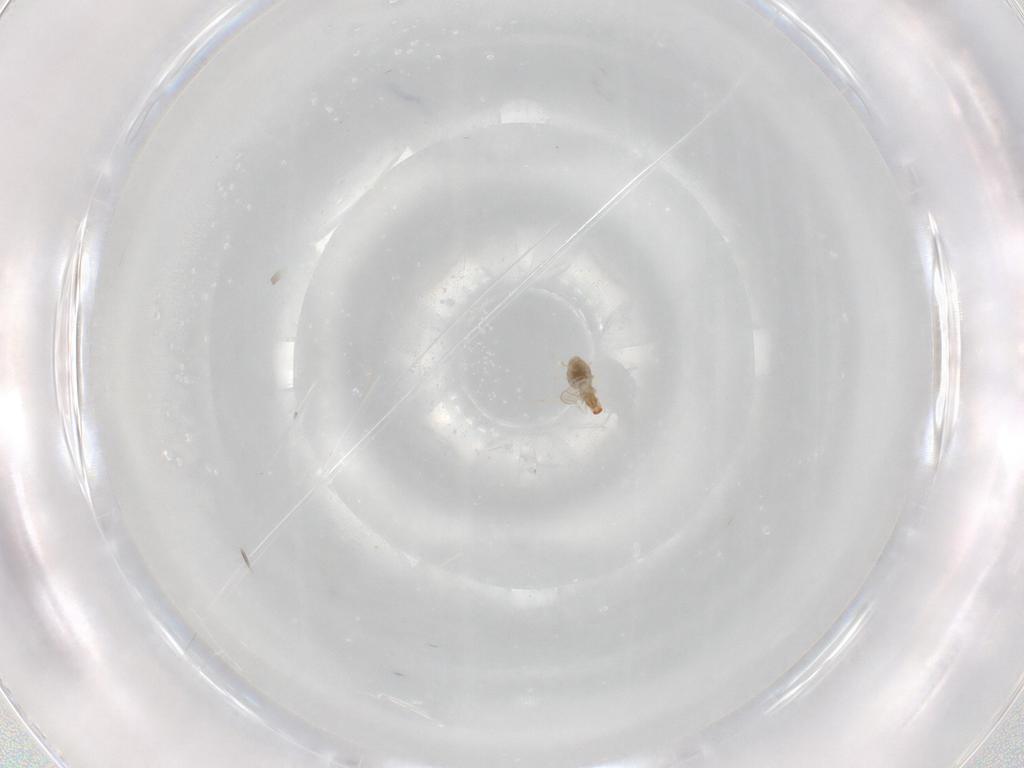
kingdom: Animalia
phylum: Arthropoda
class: Insecta
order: Diptera
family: Cecidomyiidae
